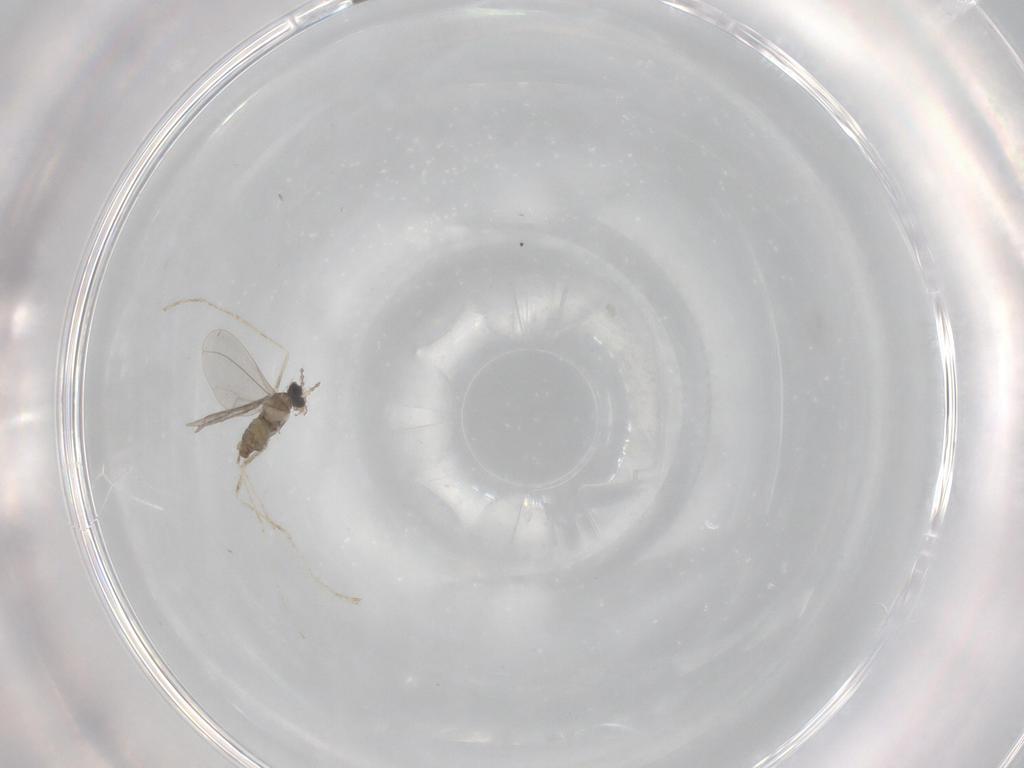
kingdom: Animalia
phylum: Arthropoda
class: Insecta
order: Diptera
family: Cecidomyiidae
